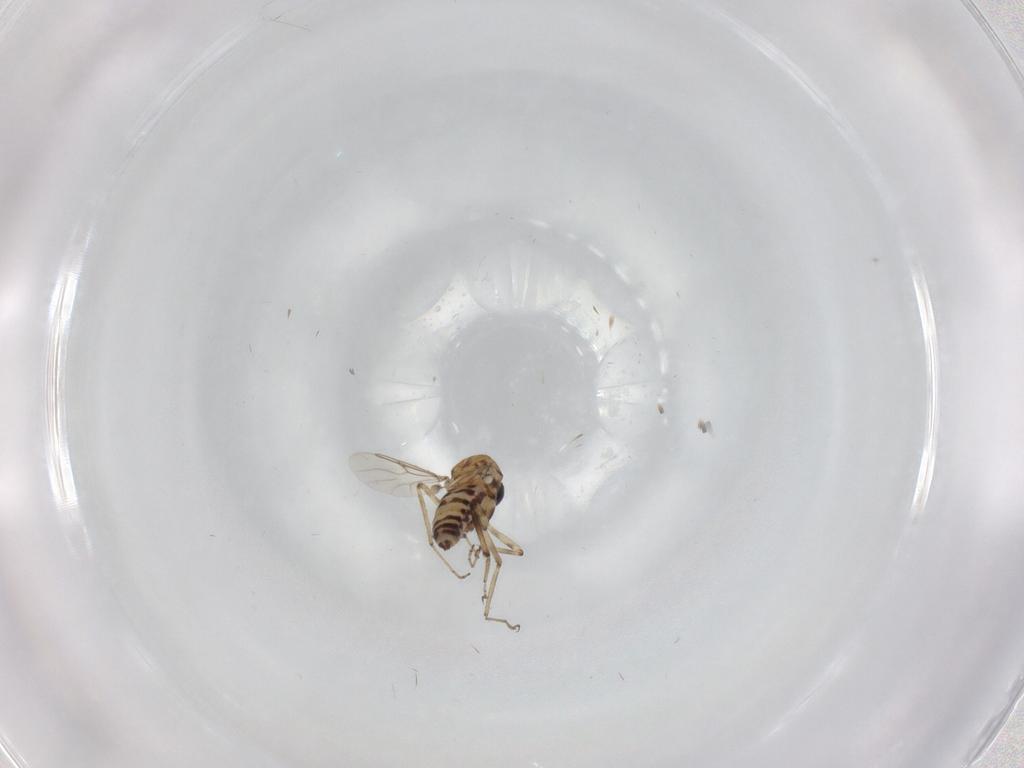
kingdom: Animalia
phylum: Arthropoda
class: Insecta
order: Diptera
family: Ceratopogonidae
